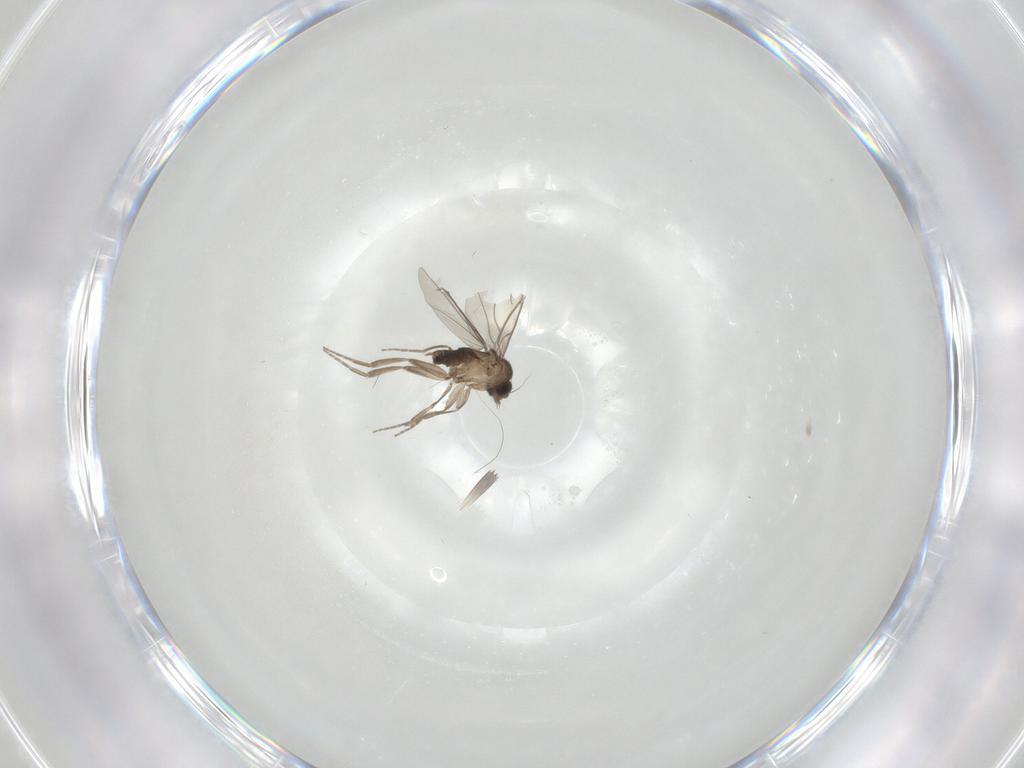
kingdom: Animalia
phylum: Arthropoda
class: Insecta
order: Diptera
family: Phoridae
